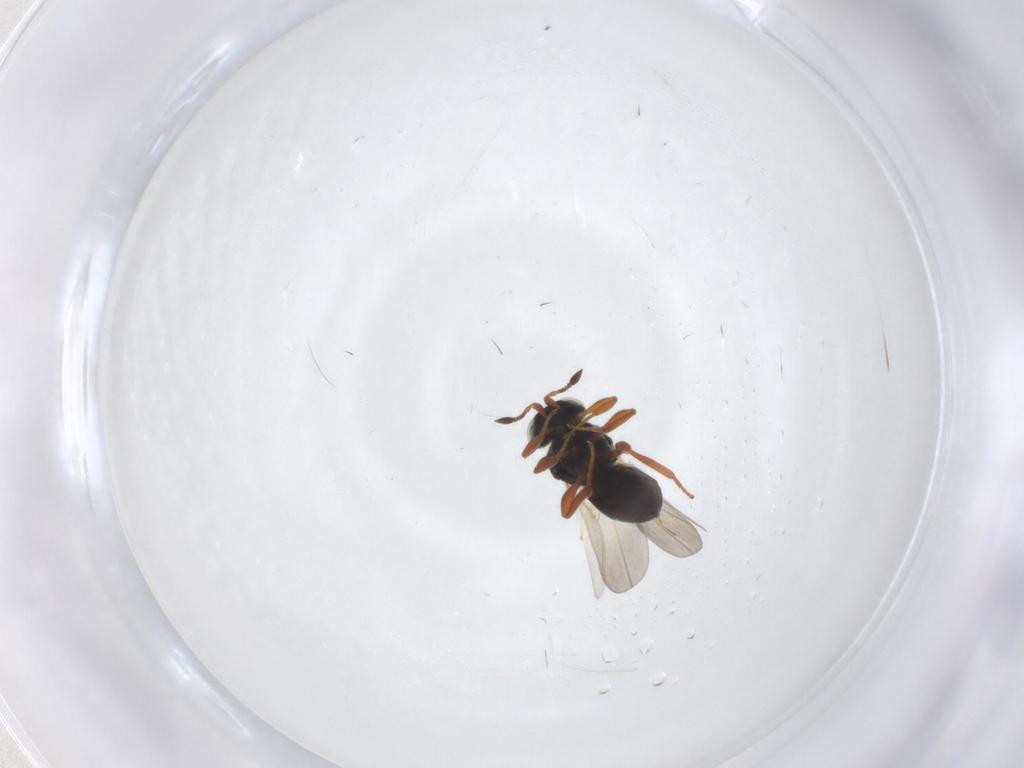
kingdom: Animalia
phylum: Arthropoda
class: Insecta
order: Hymenoptera
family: Platygastridae
